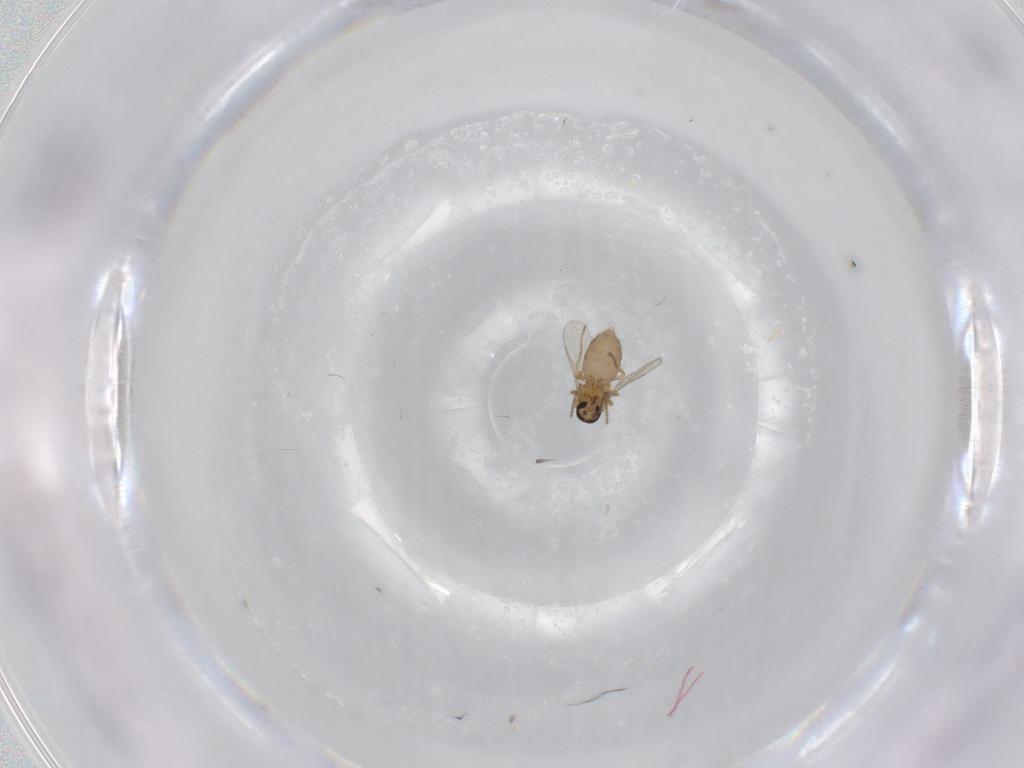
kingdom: Animalia
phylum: Arthropoda
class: Insecta
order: Diptera
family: Ceratopogonidae
